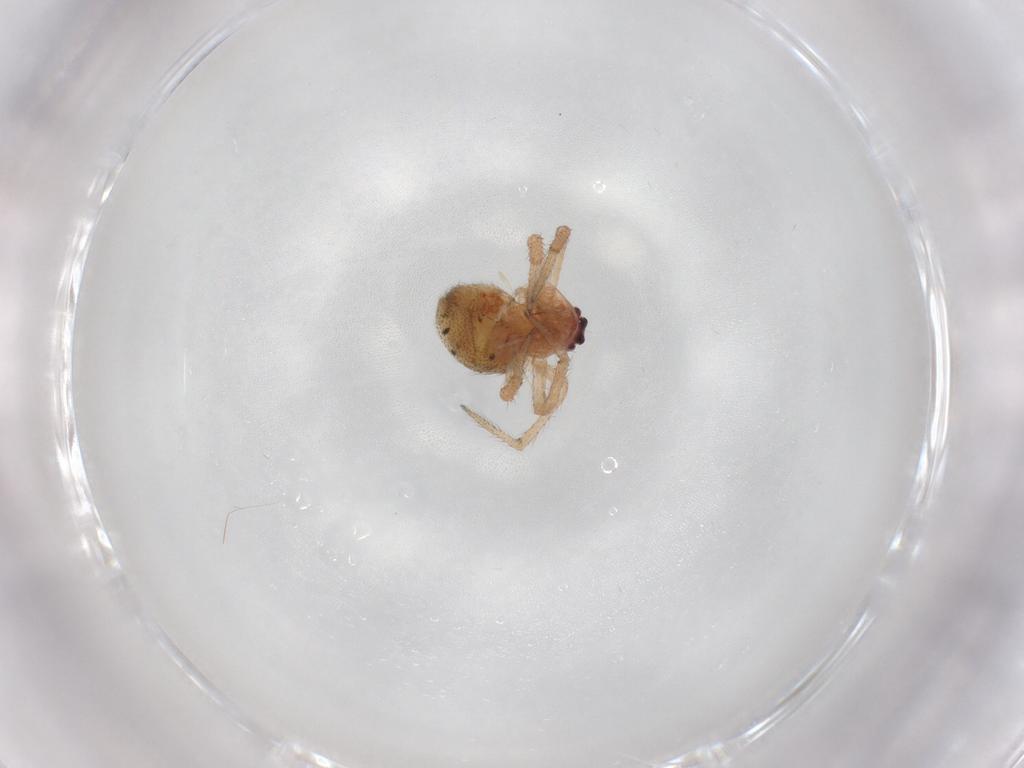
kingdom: Animalia
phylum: Arthropoda
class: Arachnida
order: Araneae
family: Theridiidae
